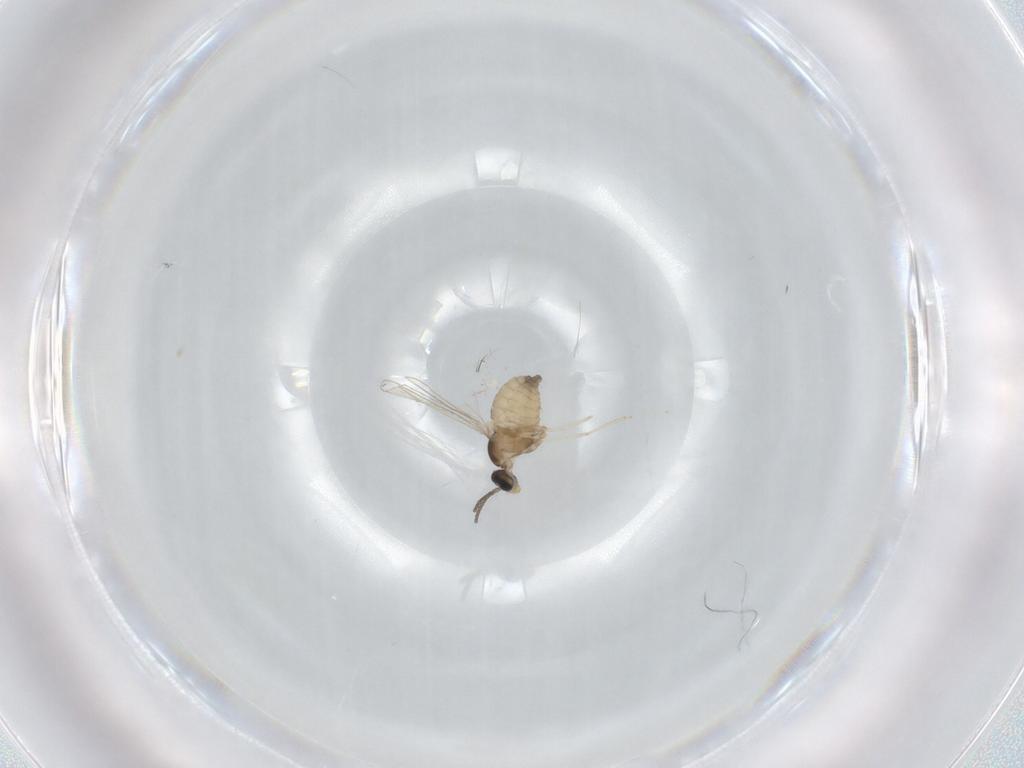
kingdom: Animalia
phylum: Arthropoda
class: Insecta
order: Diptera
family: Cecidomyiidae
